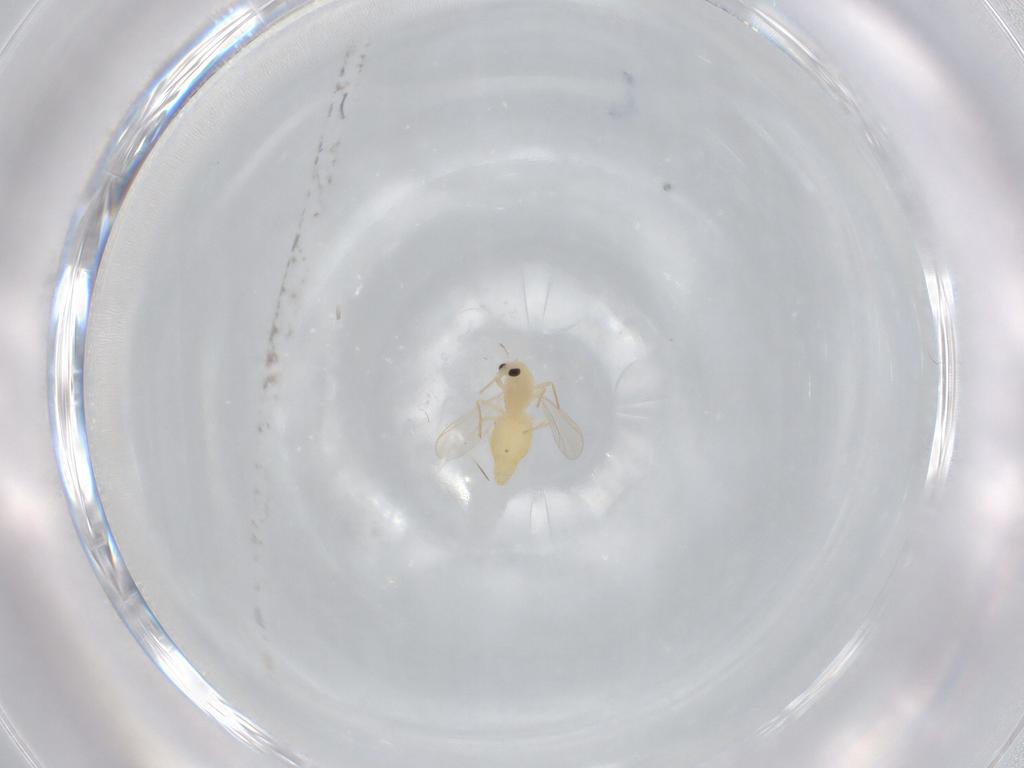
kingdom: Animalia
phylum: Arthropoda
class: Insecta
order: Diptera
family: Chironomidae
